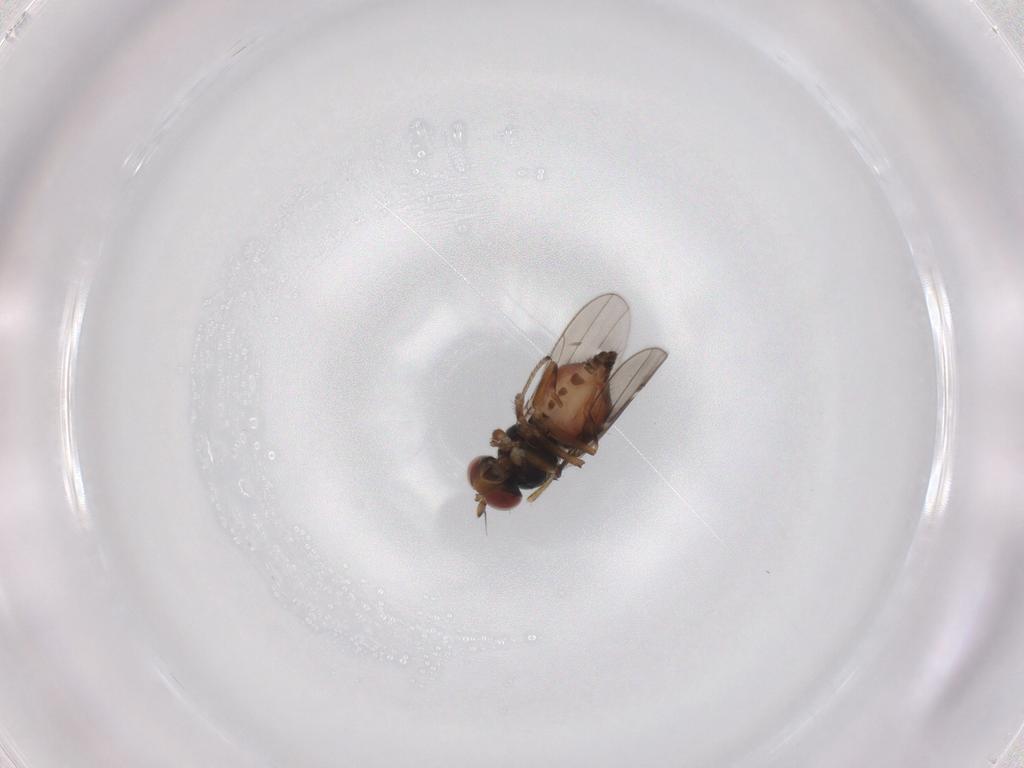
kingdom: Animalia
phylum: Arthropoda
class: Insecta
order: Diptera
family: Ephydridae
